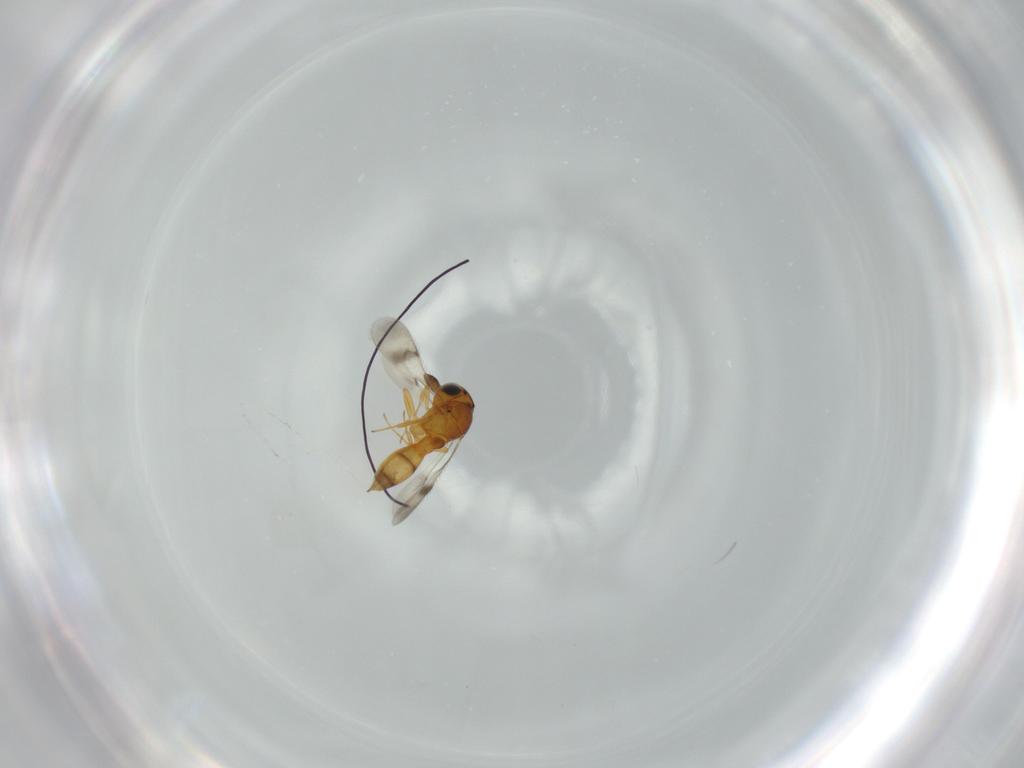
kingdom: Animalia
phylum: Arthropoda
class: Insecta
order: Hymenoptera
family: Scelionidae
